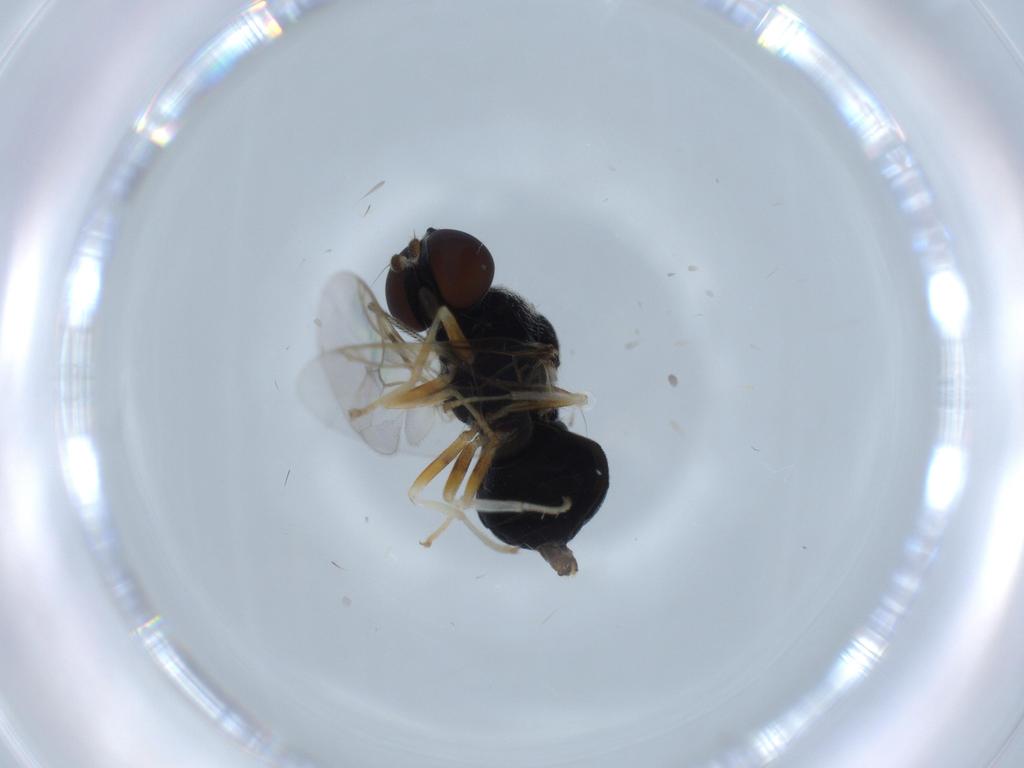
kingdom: Animalia
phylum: Arthropoda
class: Insecta
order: Diptera
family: Stratiomyidae
